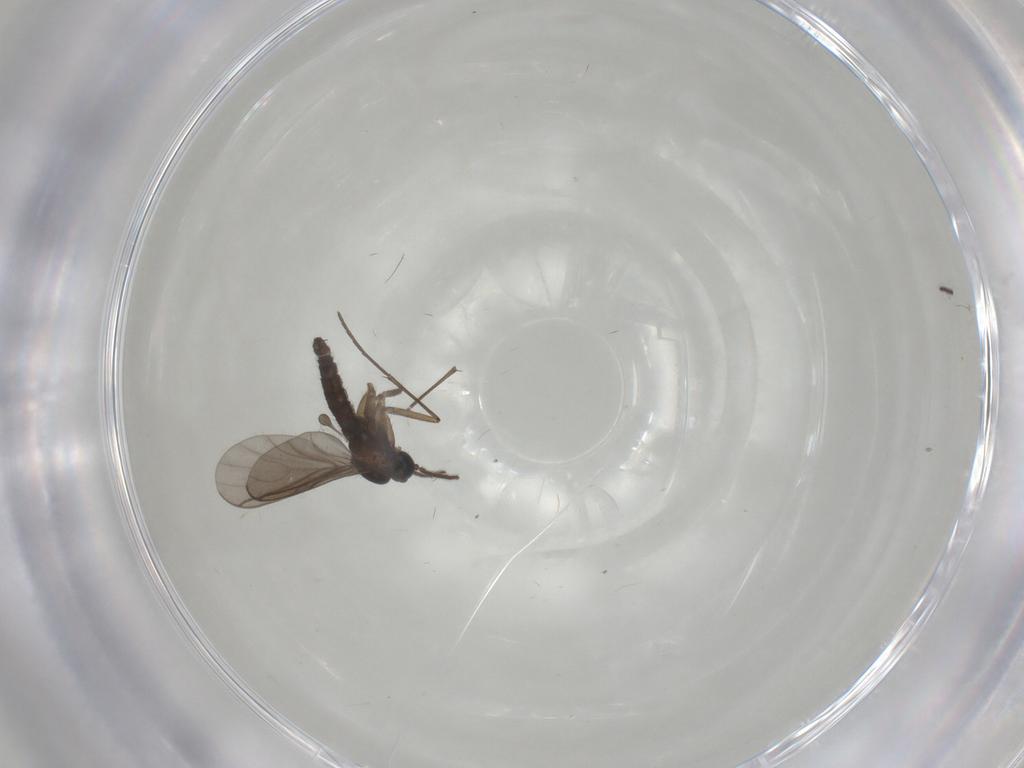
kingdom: Animalia
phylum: Arthropoda
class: Insecta
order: Diptera
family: Sciaridae
